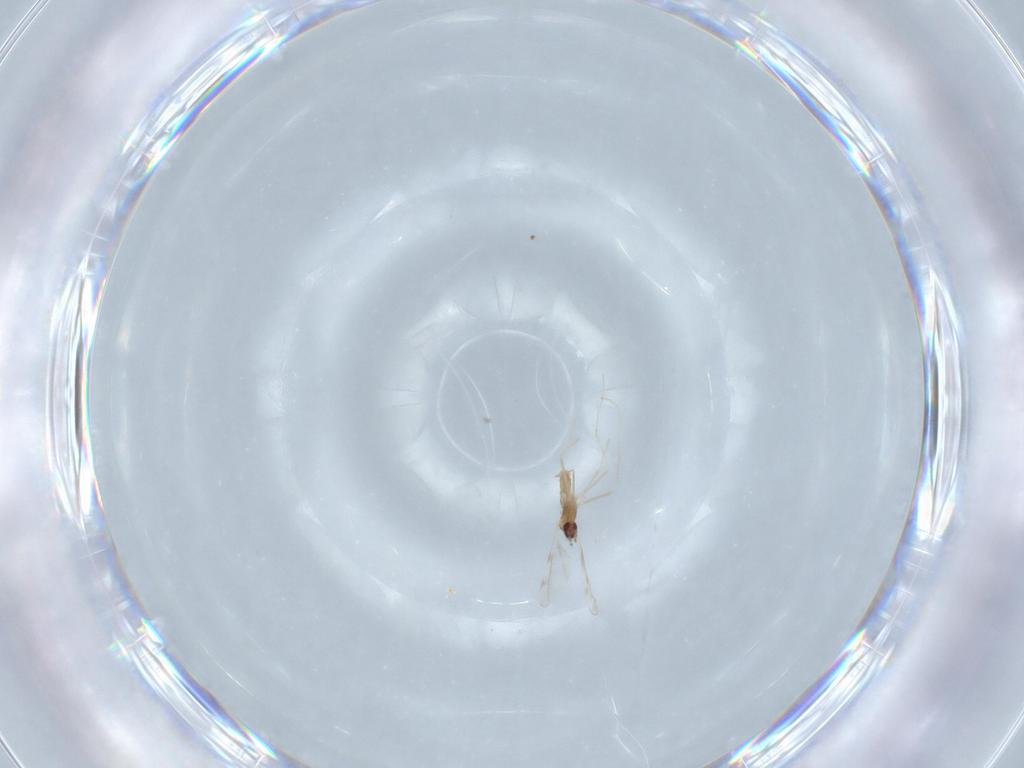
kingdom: Animalia
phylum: Arthropoda
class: Insecta
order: Diptera
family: Cecidomyiidae
